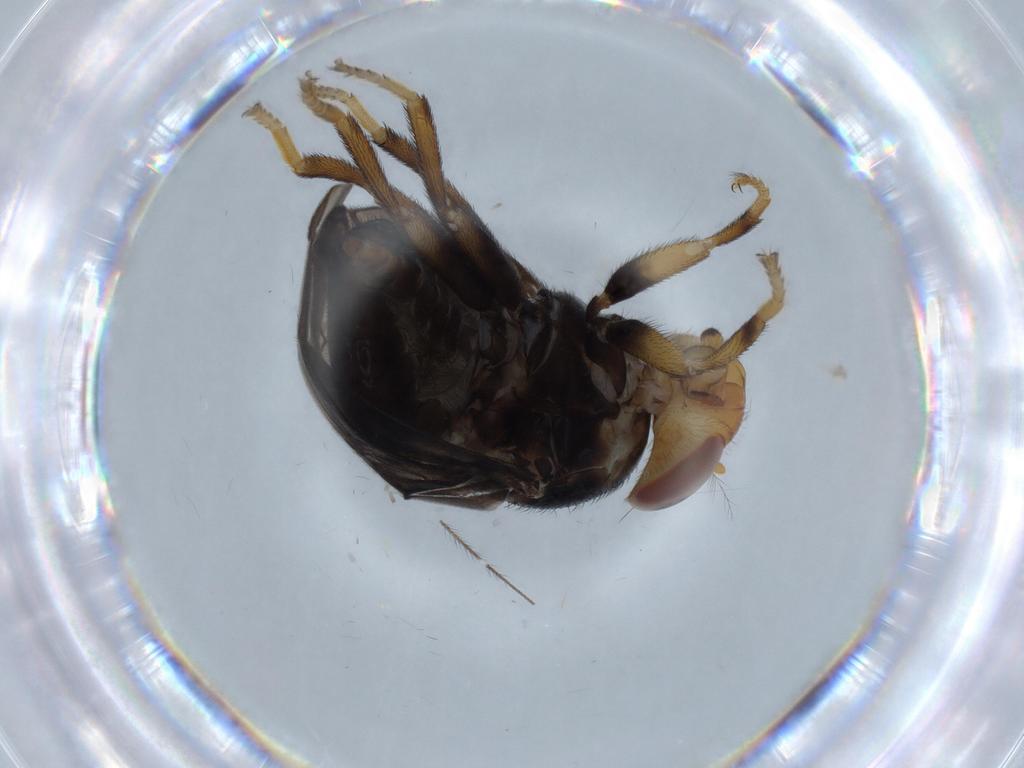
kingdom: Animalia
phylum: Arthropoda
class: Insecta
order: Diptera
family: Ulidiidae
